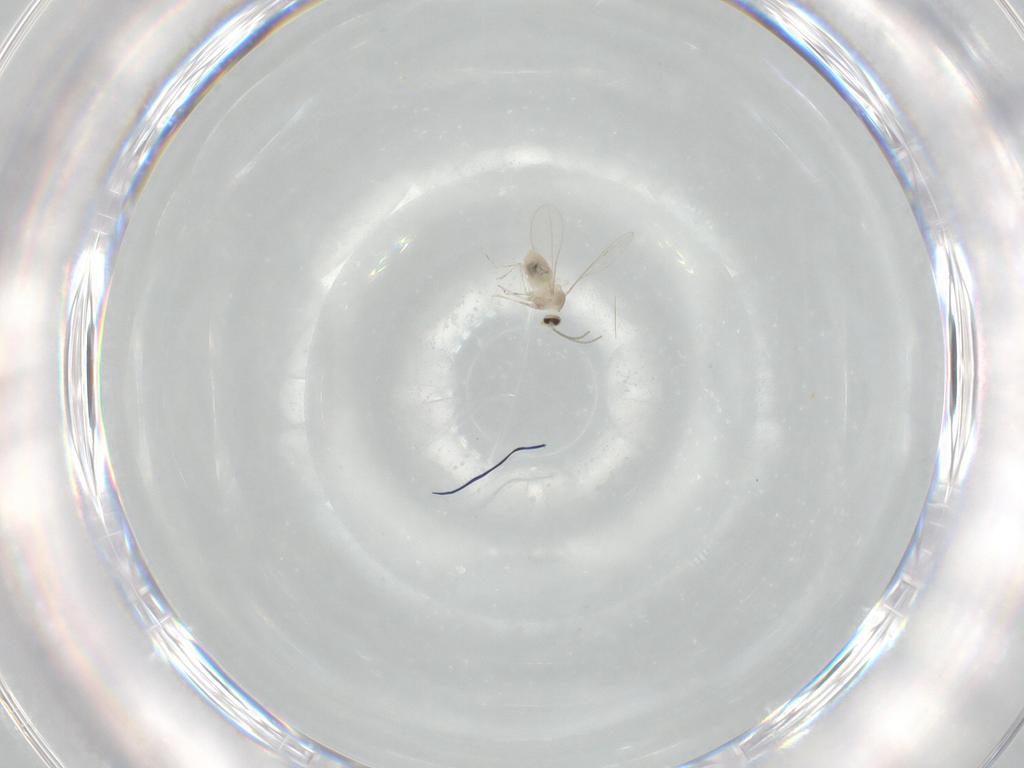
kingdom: Animalia
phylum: Arthropoda
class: Insecta
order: Diptera
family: Cecidomyiidae
